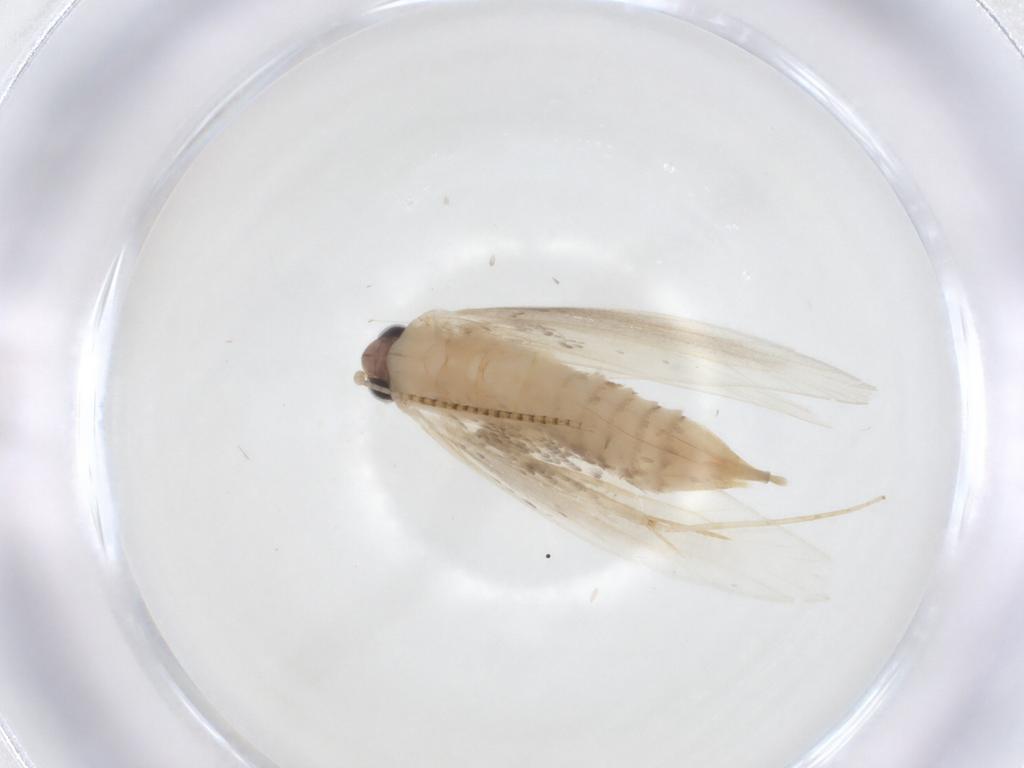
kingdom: Animalia
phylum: Arthropoda
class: Insecta
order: Lepidoptera
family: Tineidae
